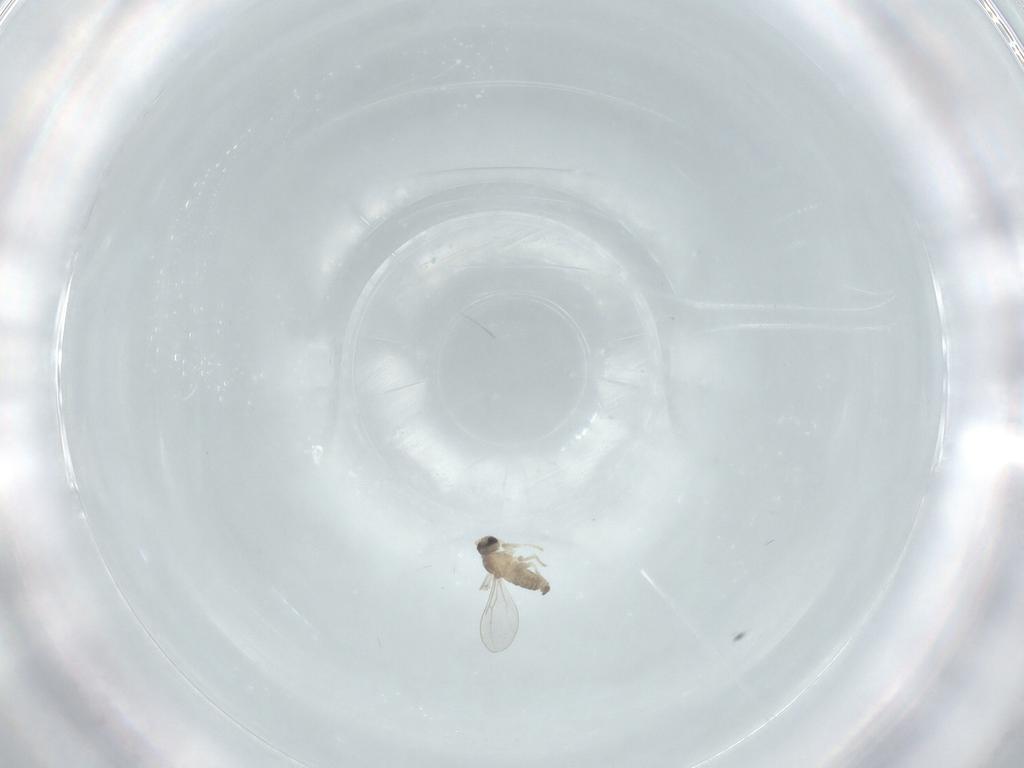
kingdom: Animalia
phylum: Arthropoda
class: Insecta
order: Diptera
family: Cecidomyiidae
